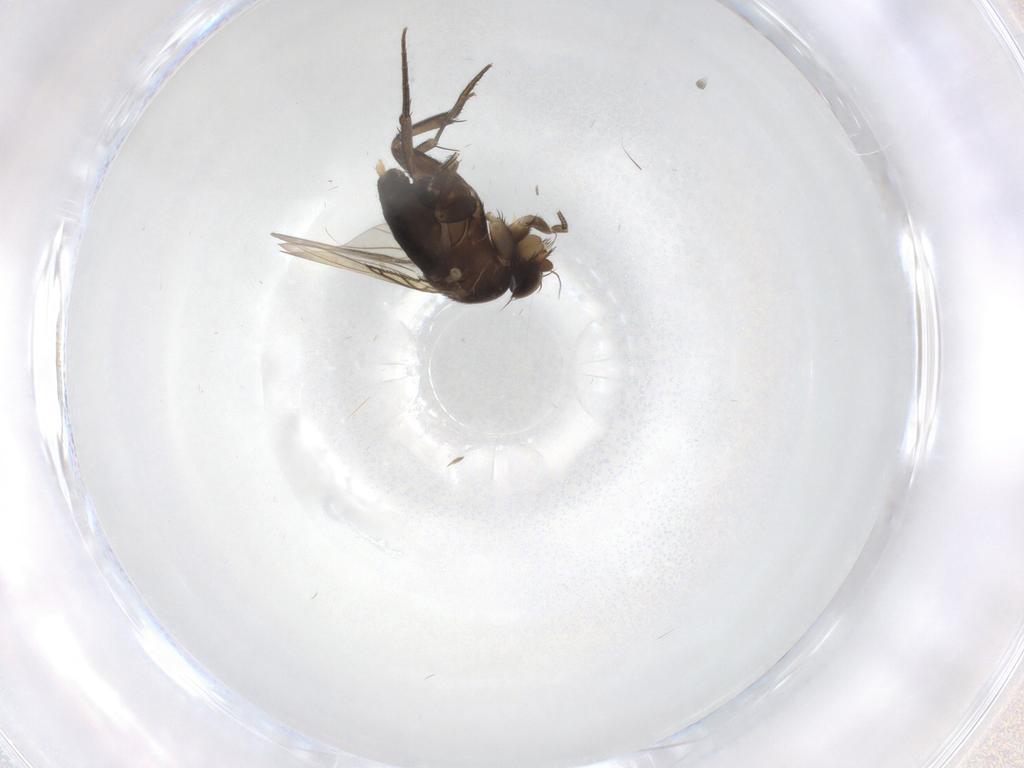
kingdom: Animalia
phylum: Arthropoda
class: Insecta
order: Diptera
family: Phoridae
